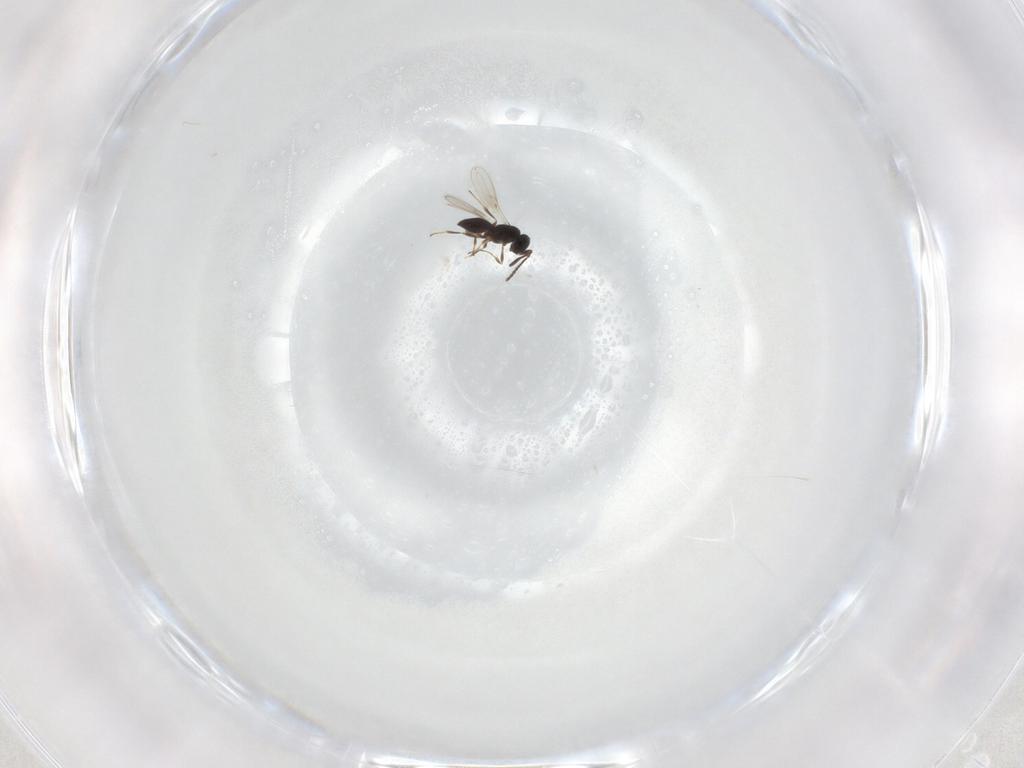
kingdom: Animalia
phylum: Arthropoda
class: Insecta
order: Hymenoptera
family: Scelionidae
